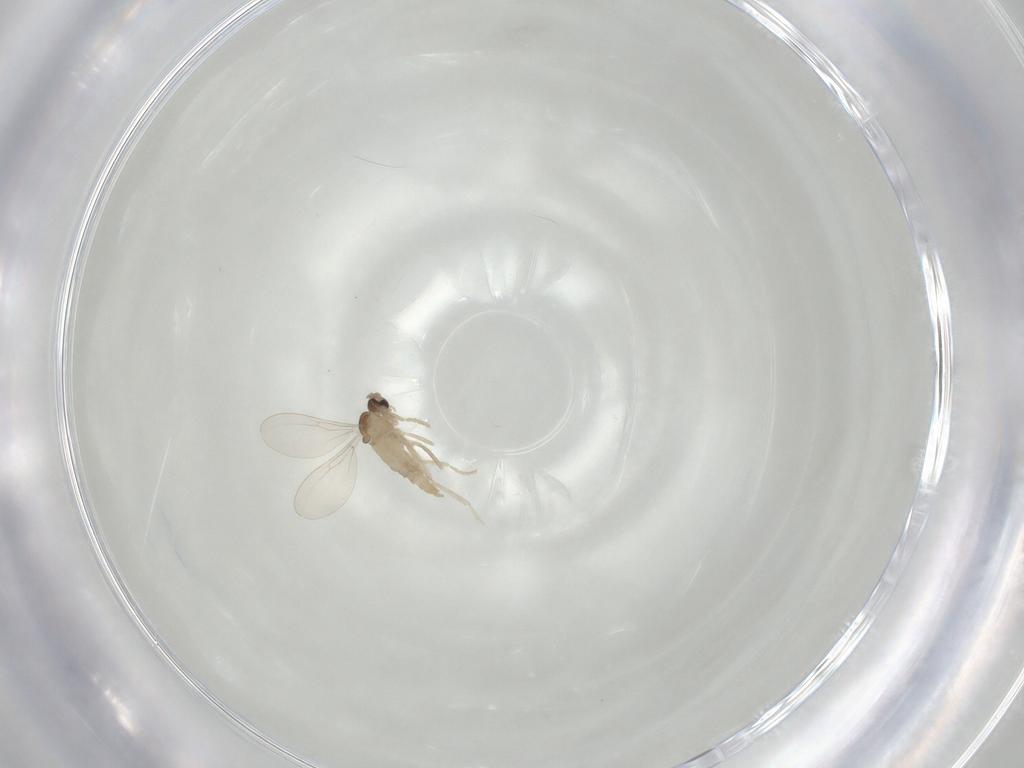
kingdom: Animalia
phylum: Arthropoda
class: Insecta
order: Diptera
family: Cecidomyiidae
